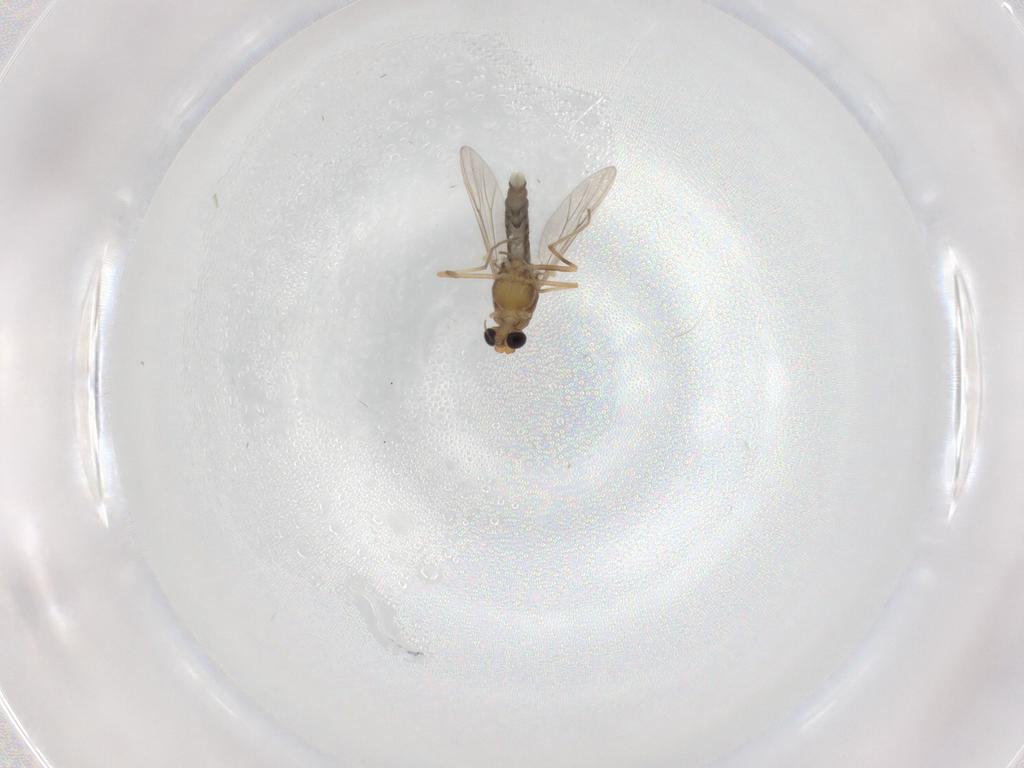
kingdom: Animalia
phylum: Arthropoda
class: Insecta
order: Diptera
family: Chironomidae
